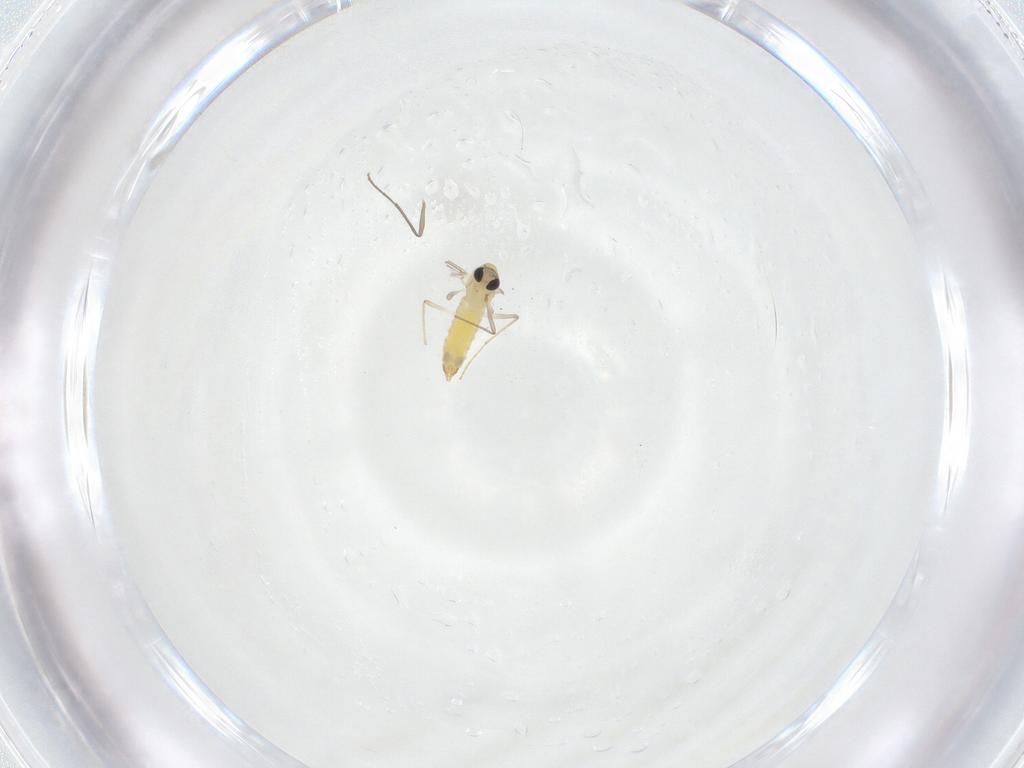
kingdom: Animalia
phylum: Arthropoda
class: Insecta
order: Diptera
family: Chironomidae
